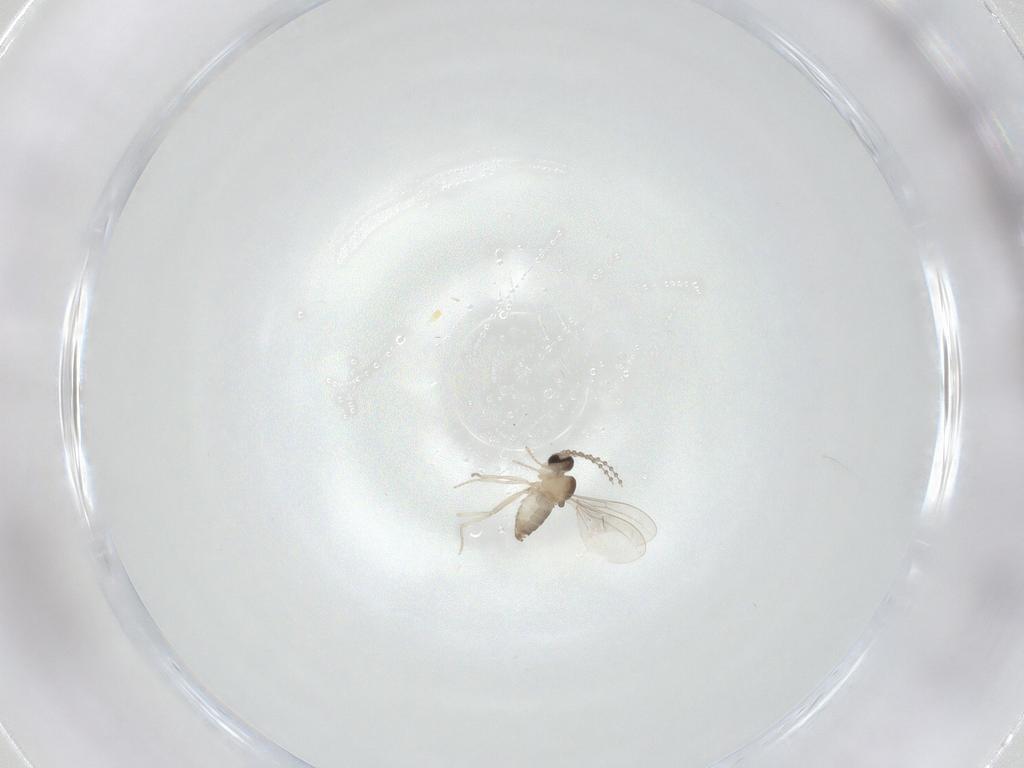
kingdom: Animalia
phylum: Arthropoda
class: Insecta
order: Diptera
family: Cecidomyiidae
